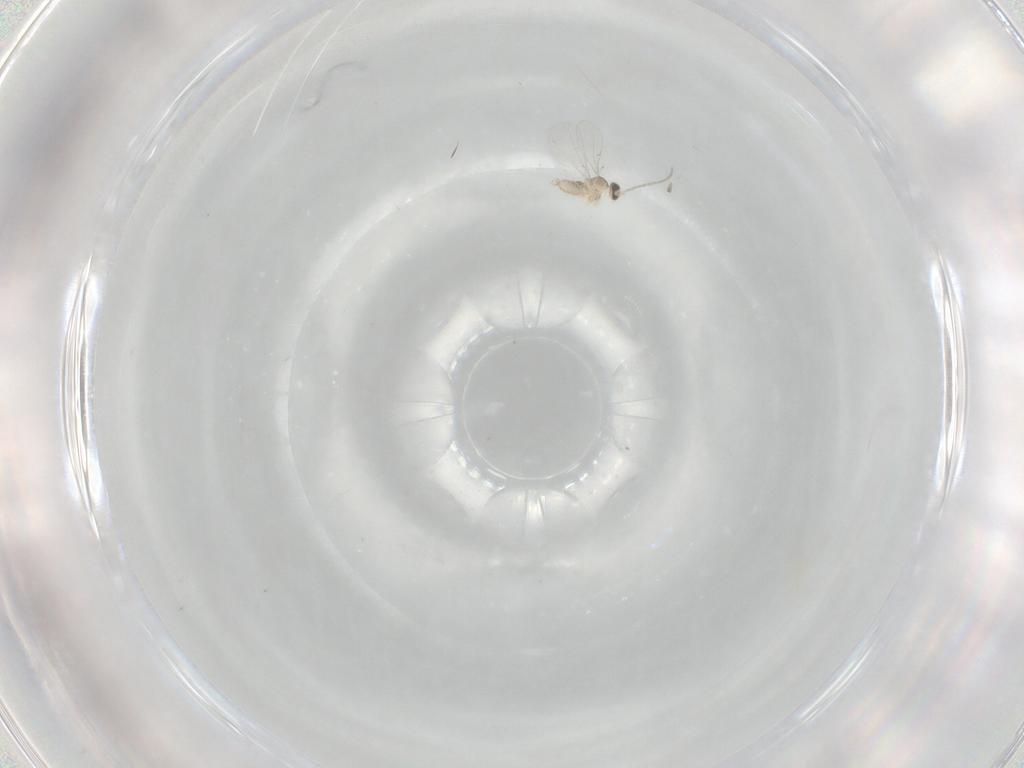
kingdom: Animalia
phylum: Arthropoda
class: Insecta
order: Diptera
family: Cecidomyiidae
